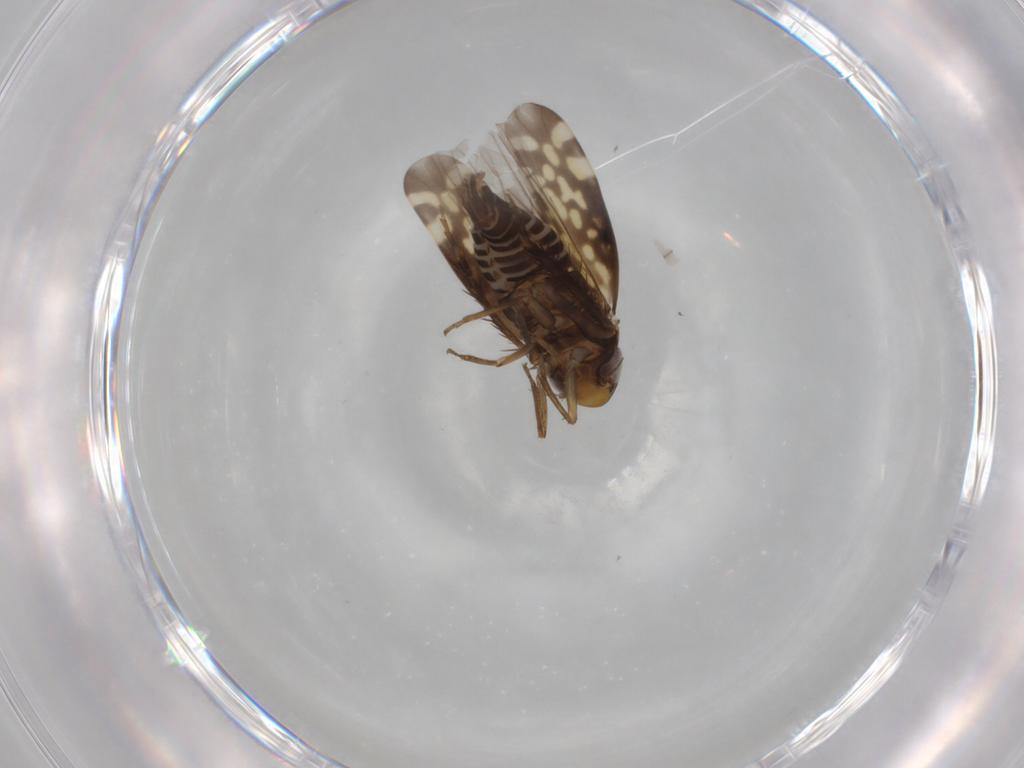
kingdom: Animalia
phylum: Arthropoda
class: Insecta
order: Hemiptera
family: Cicadellidae
